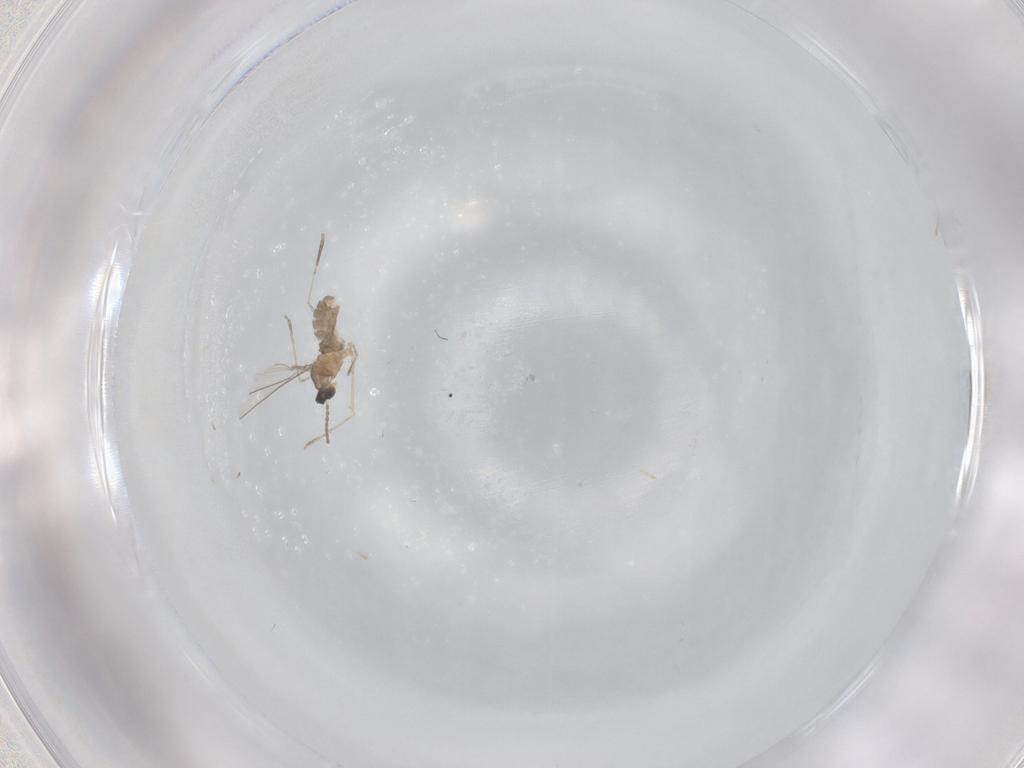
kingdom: Animalia
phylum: Arthropoda
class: Insecta
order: Diptera
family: Cecidomyiidae
